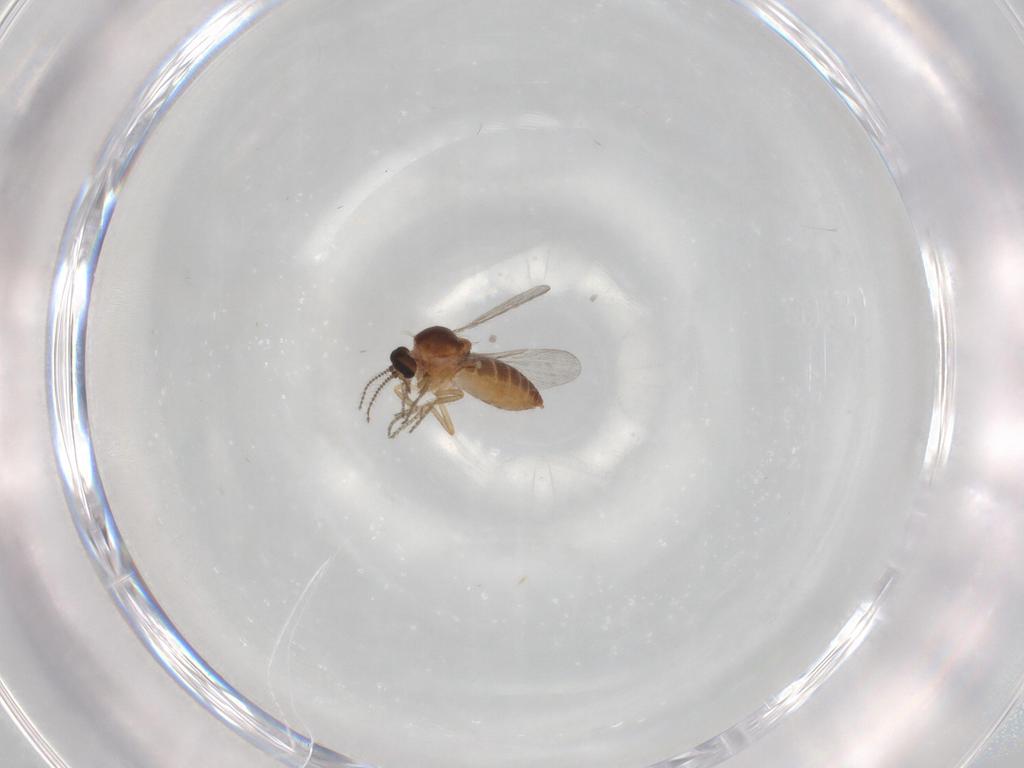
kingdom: Animalia
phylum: Arthropoda
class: Insecta
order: Diptera
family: Ceratopogonidae
